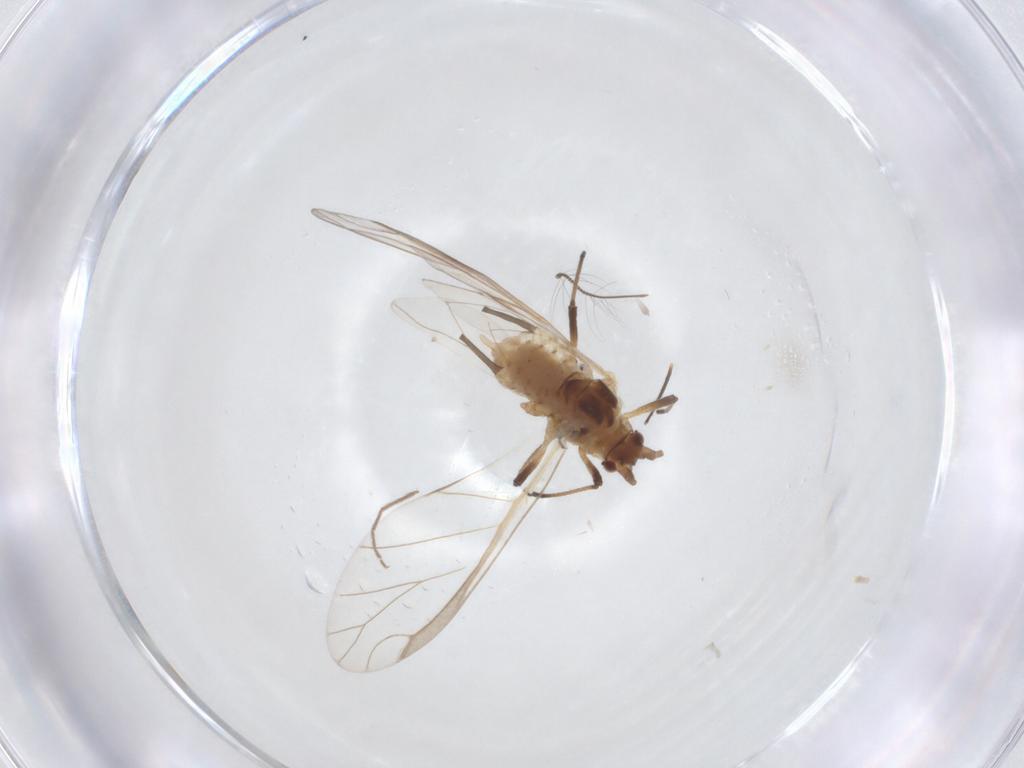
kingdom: Animalia
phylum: Arthropoda
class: Insecta
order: Hemiptera
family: Aphididae
